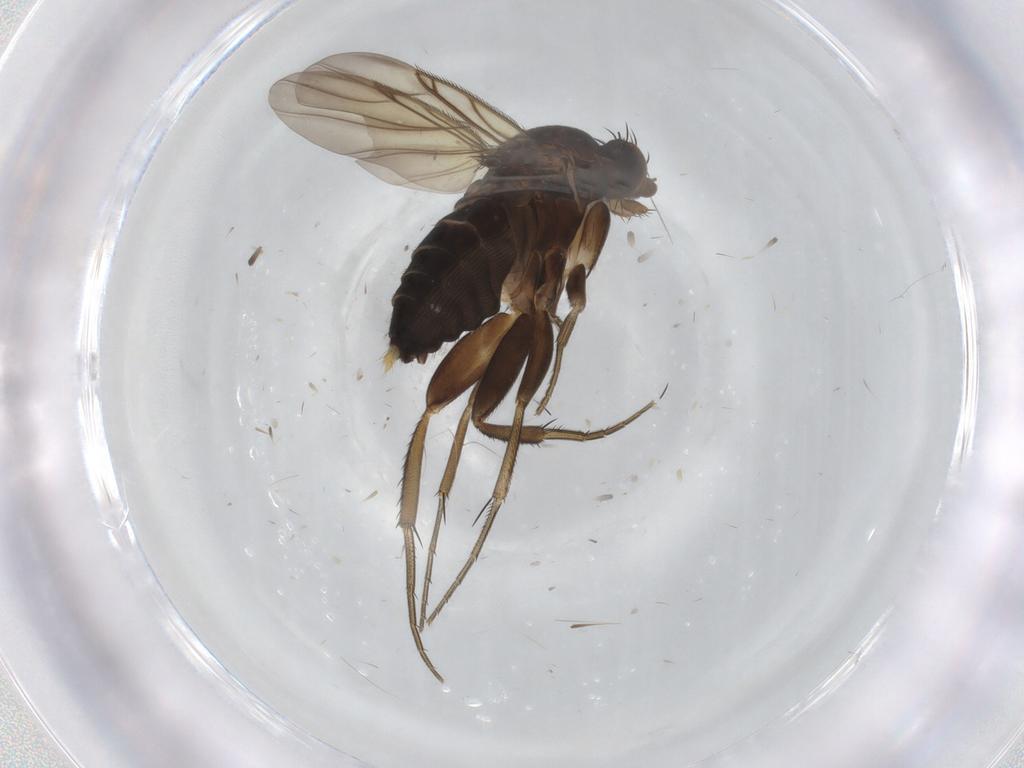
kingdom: Animalia
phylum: Arthropoda
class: Insecta
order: Diptera
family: Phoridae
